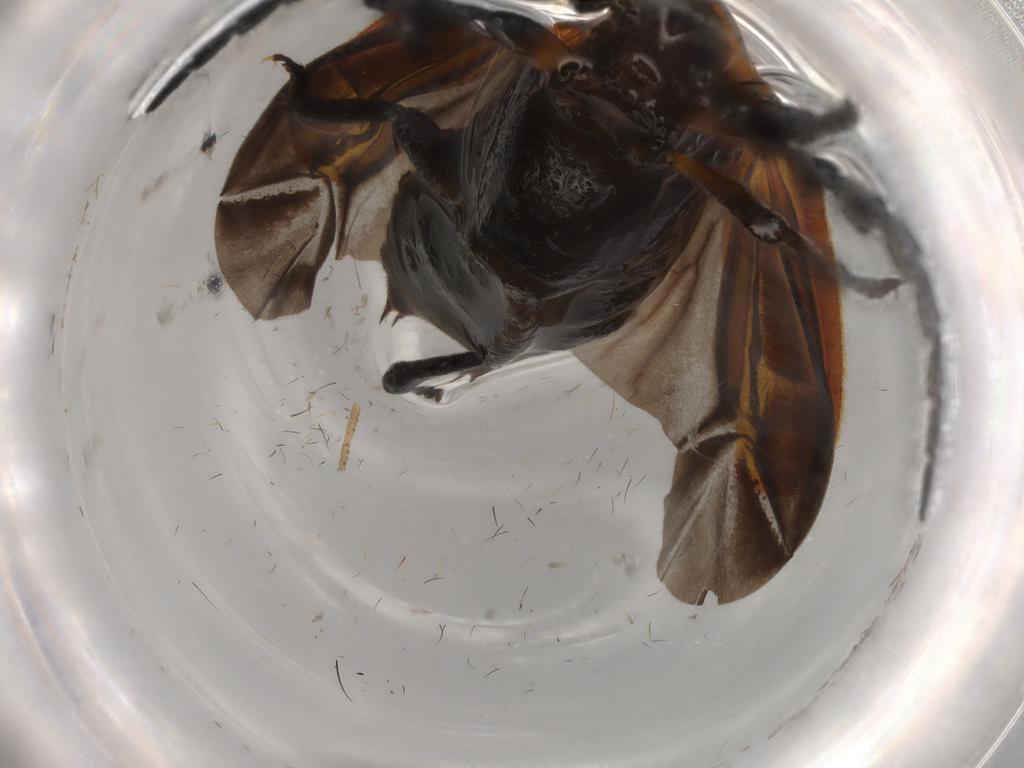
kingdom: Animalia
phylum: Arthropoda
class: Insecta
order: Coleoptera
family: Lycidae
